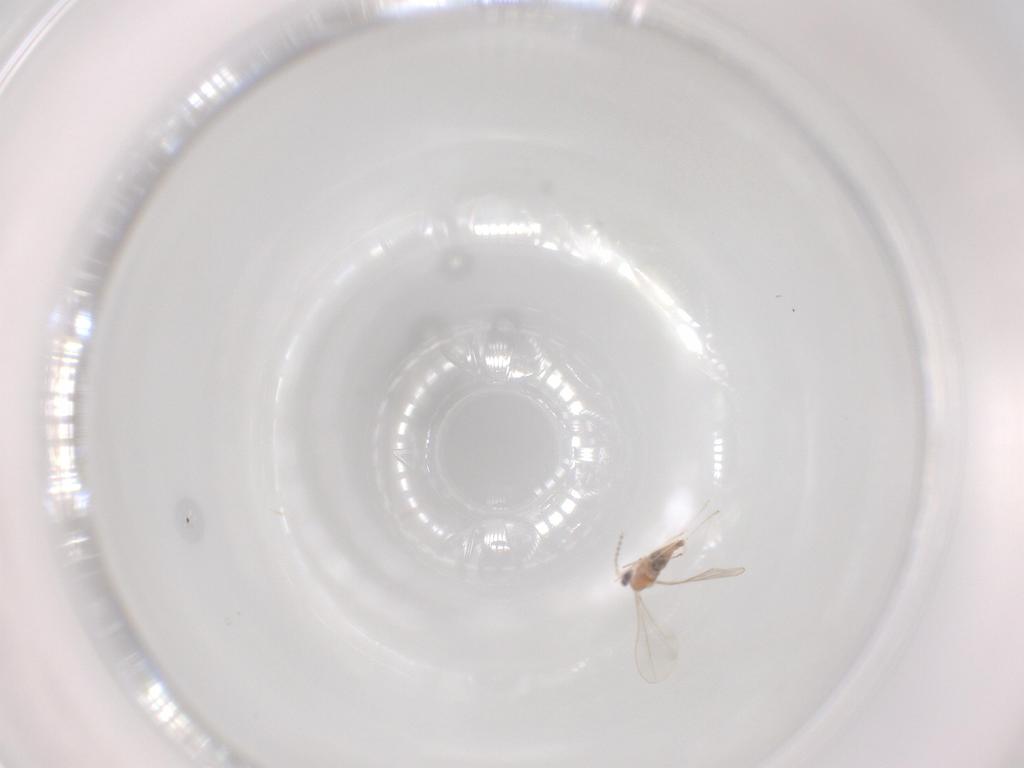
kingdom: Animalia
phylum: Arthropoda
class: Insecta
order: Diptera
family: Cecidomyiidae
